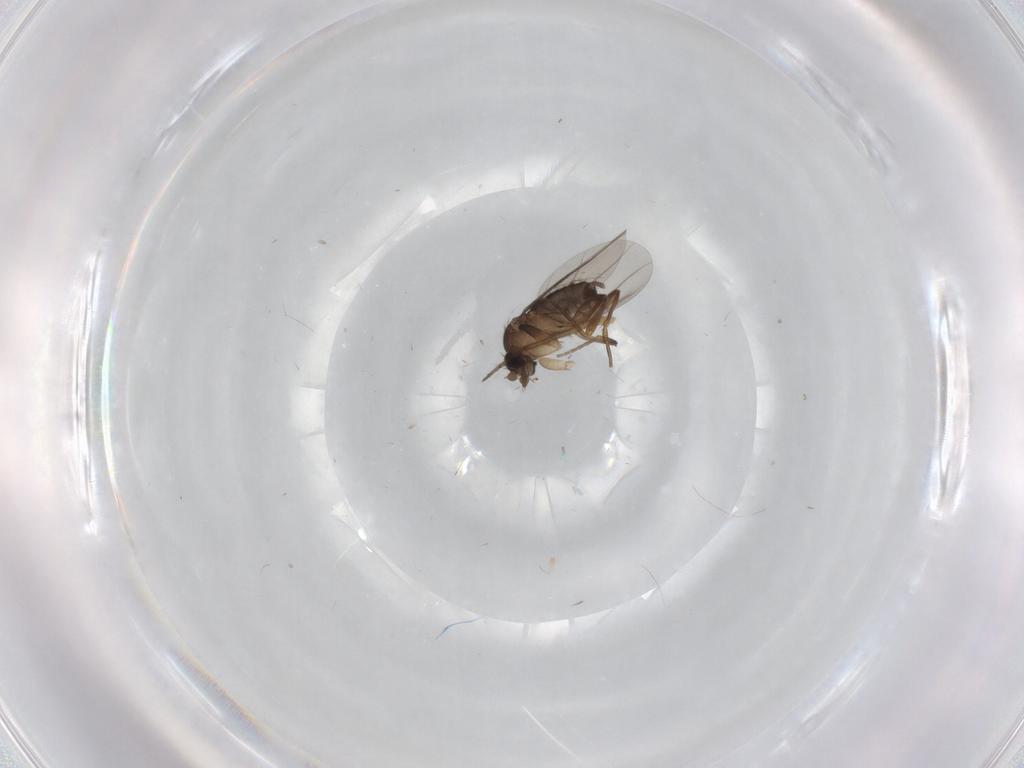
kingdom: Animalia
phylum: Arthropoda
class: Insecta
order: Diptera
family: Chironomidae
